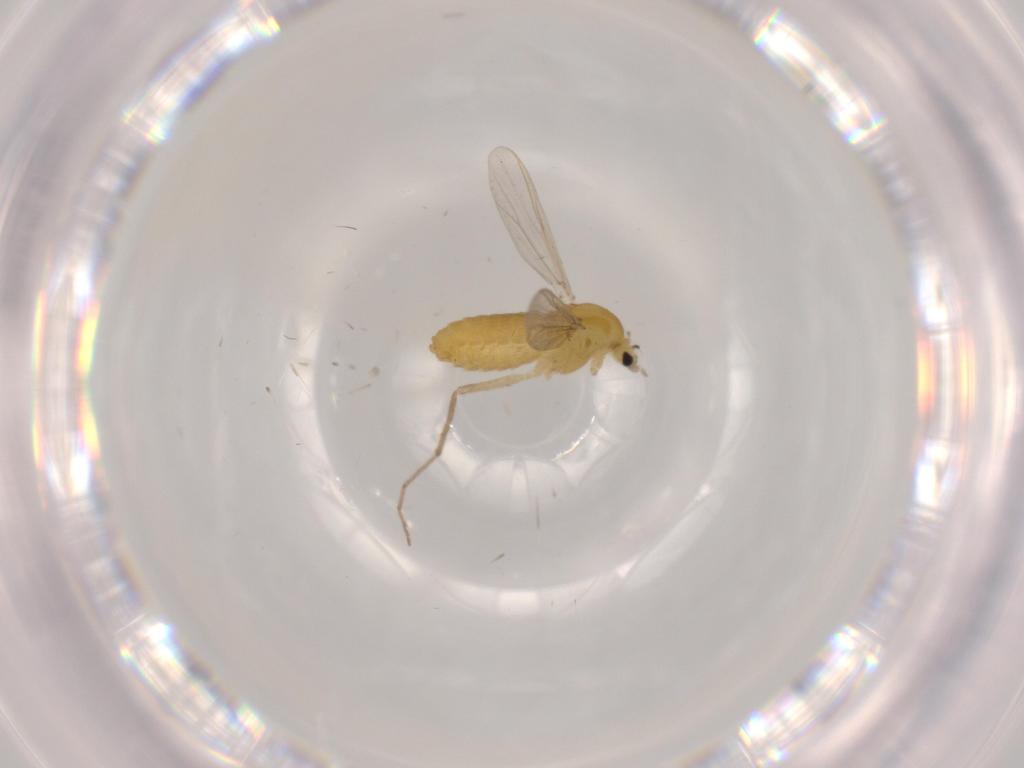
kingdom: Animalia
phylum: Arthropoda
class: Insecta
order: Diptera
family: Chironomidae
